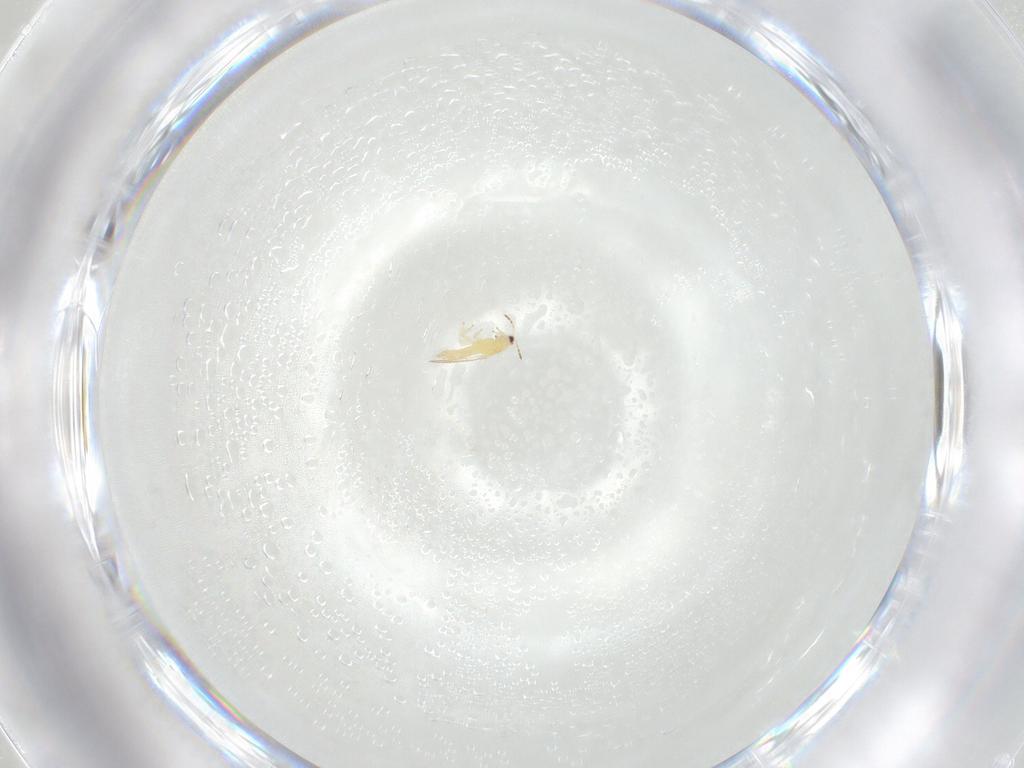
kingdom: Animalia
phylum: Arthropoda
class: Insecta
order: Thysanoptera
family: Thripidae
